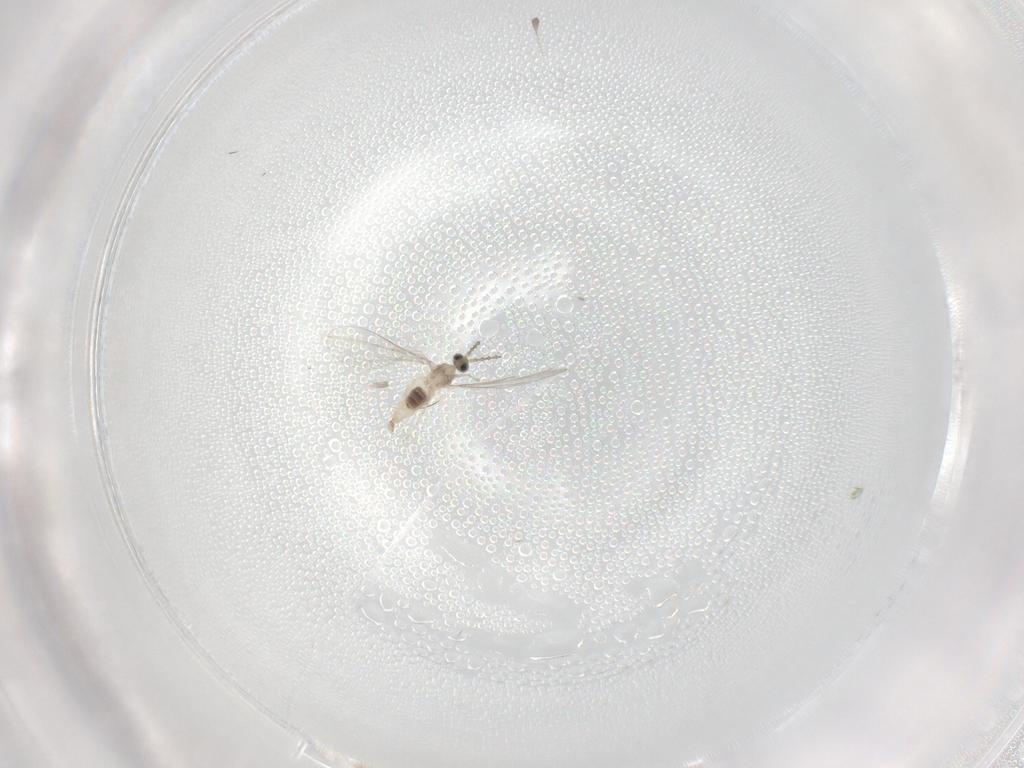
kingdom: Animalia
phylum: Arthropoda
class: Insecta
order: Diptera
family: Cecidomyiidae
